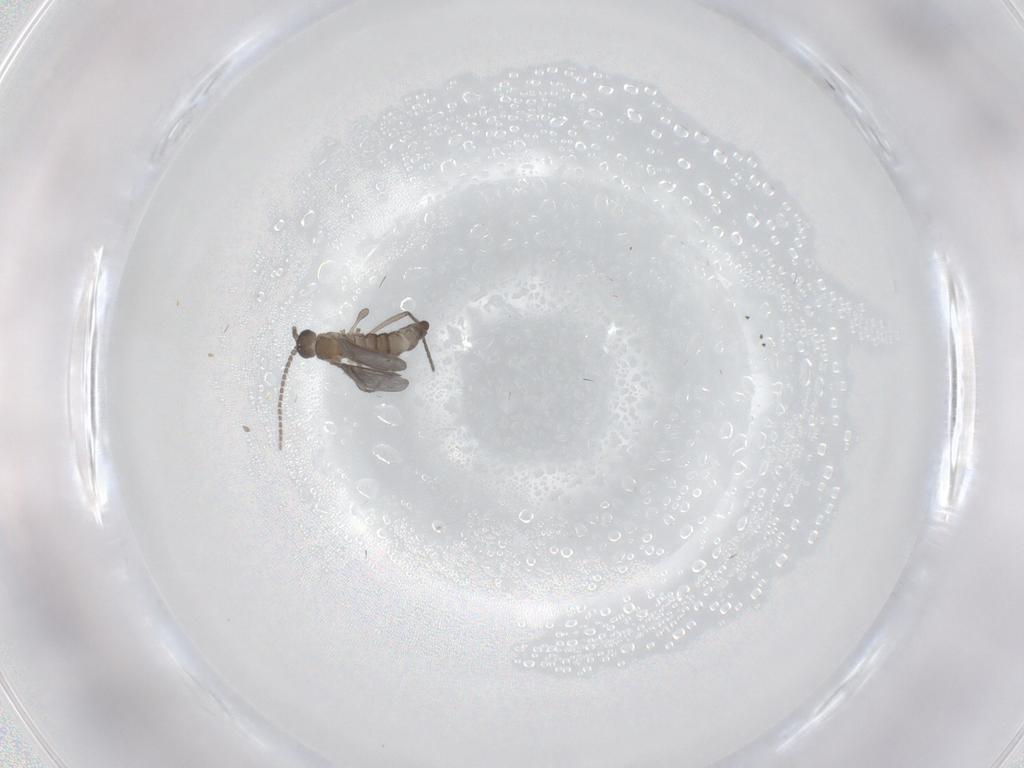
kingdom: Animalia
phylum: Arthropoda
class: Insecta
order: Diptera
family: Sciaridae
